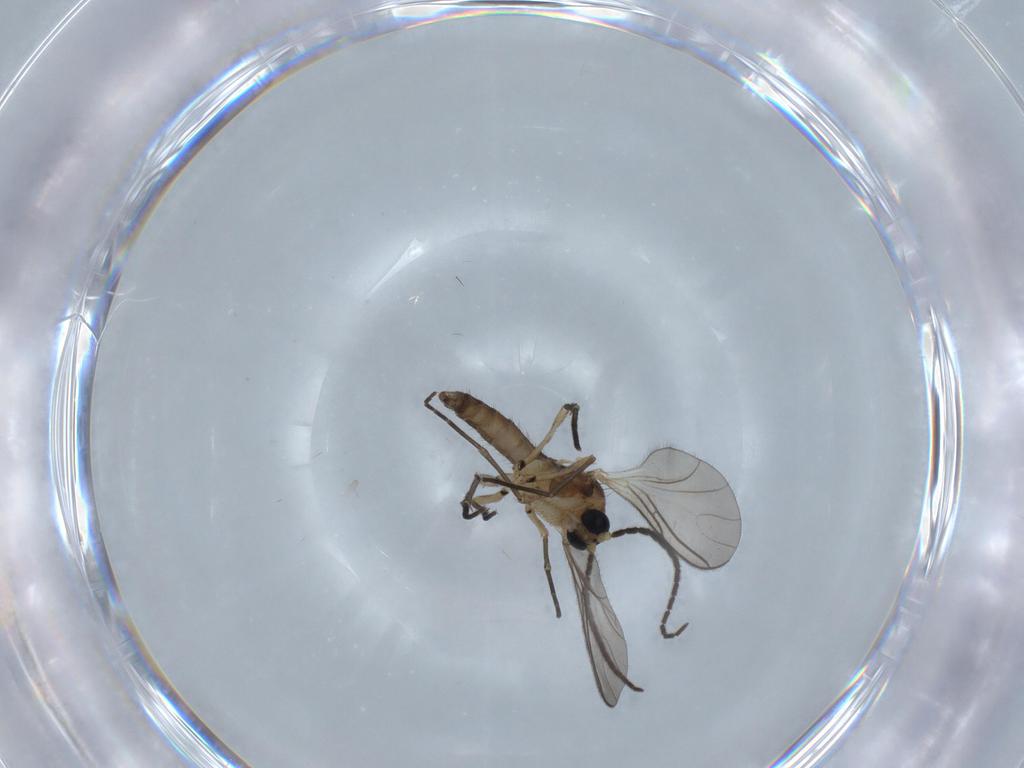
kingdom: Animalia
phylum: Arthropoda
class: Insecta
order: Diptera
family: Sciaridae
